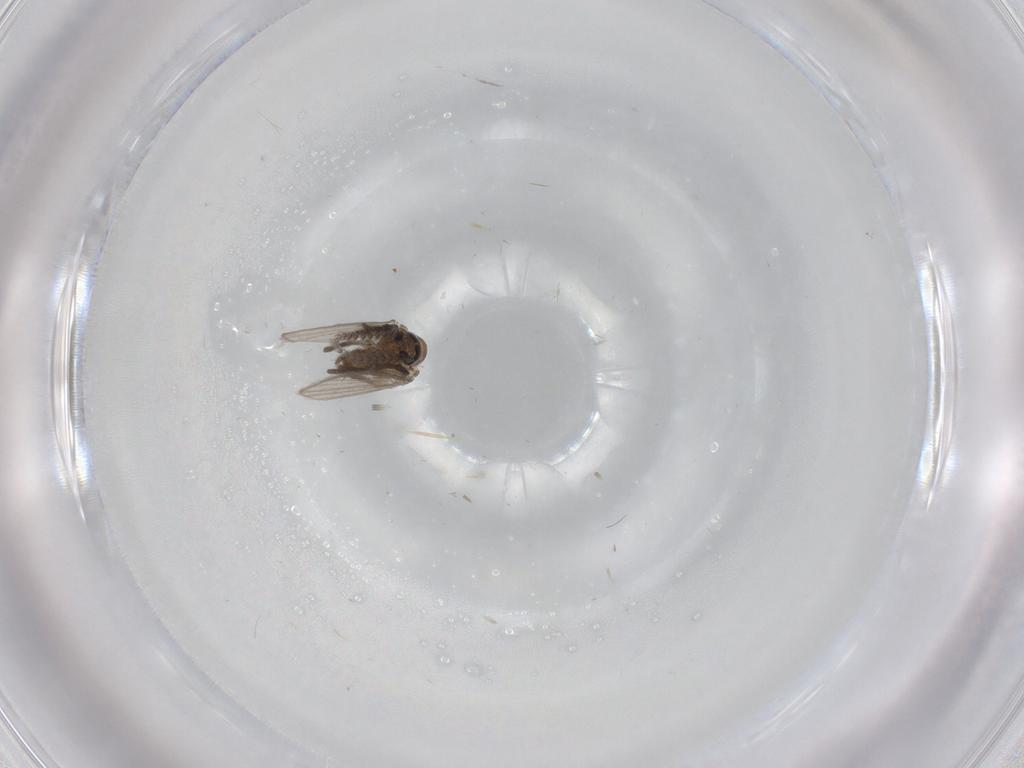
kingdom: Animalia
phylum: Arthropoda
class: Insecta
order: Diptera
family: Psychodidae
